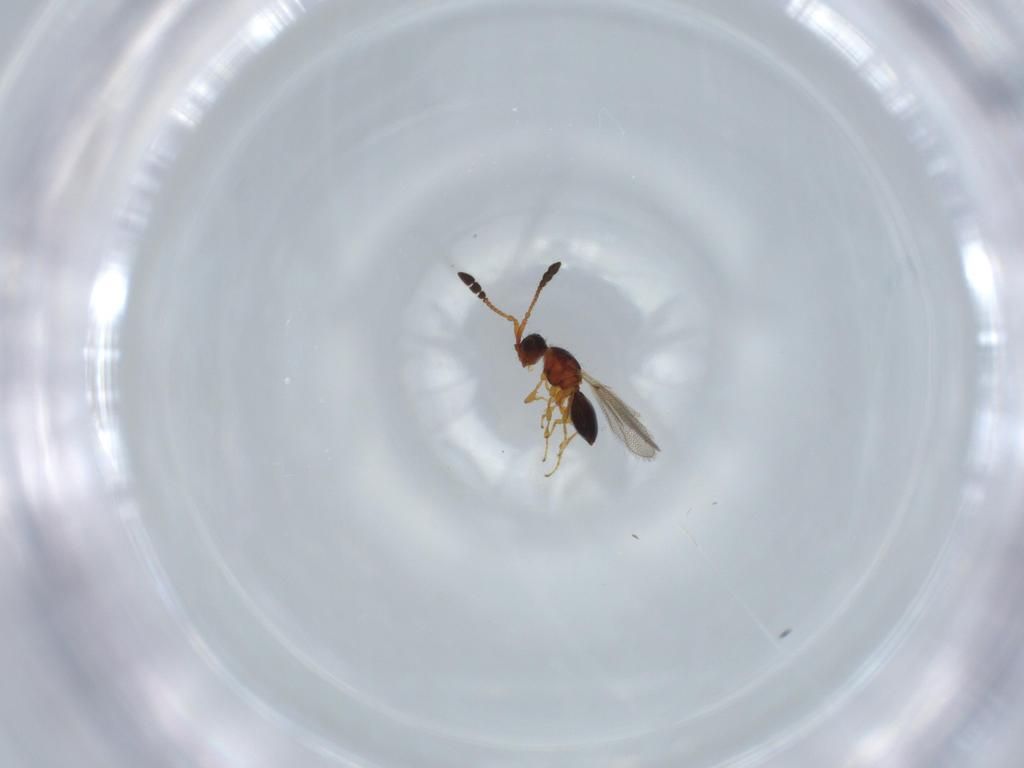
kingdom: Animalia
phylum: Arthropoda
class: Insecta
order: Hymenoptera
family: Diapriidae
